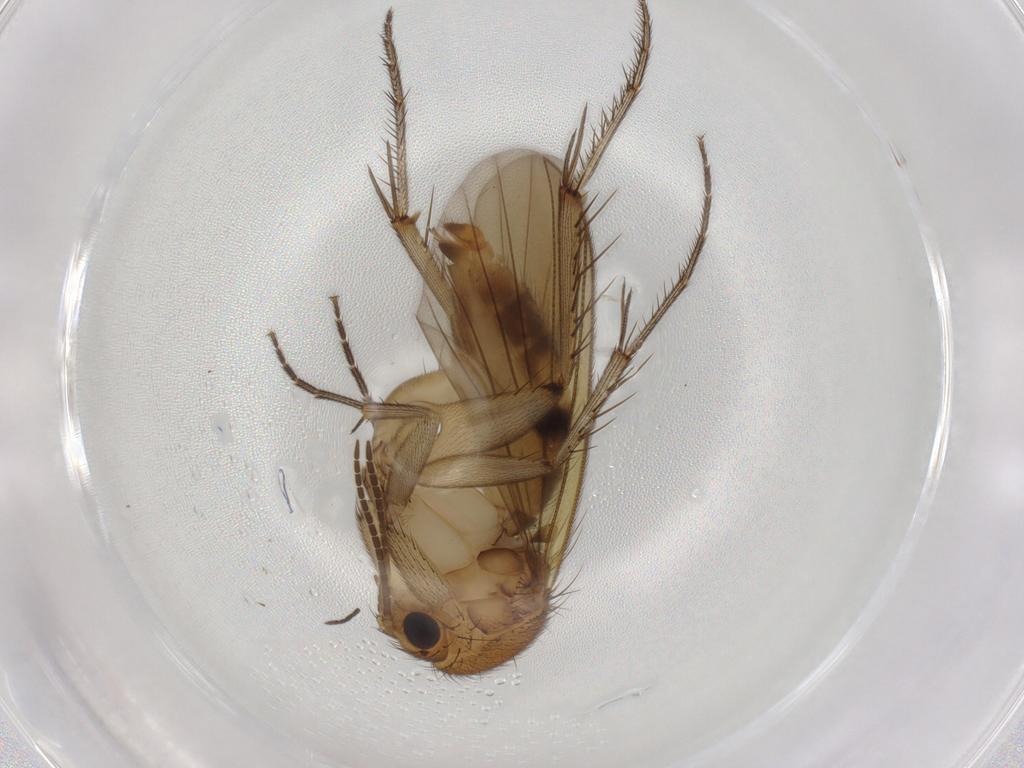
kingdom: Animalia
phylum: Arthropoda
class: Insecta
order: Diptera
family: Mycetophilidae
